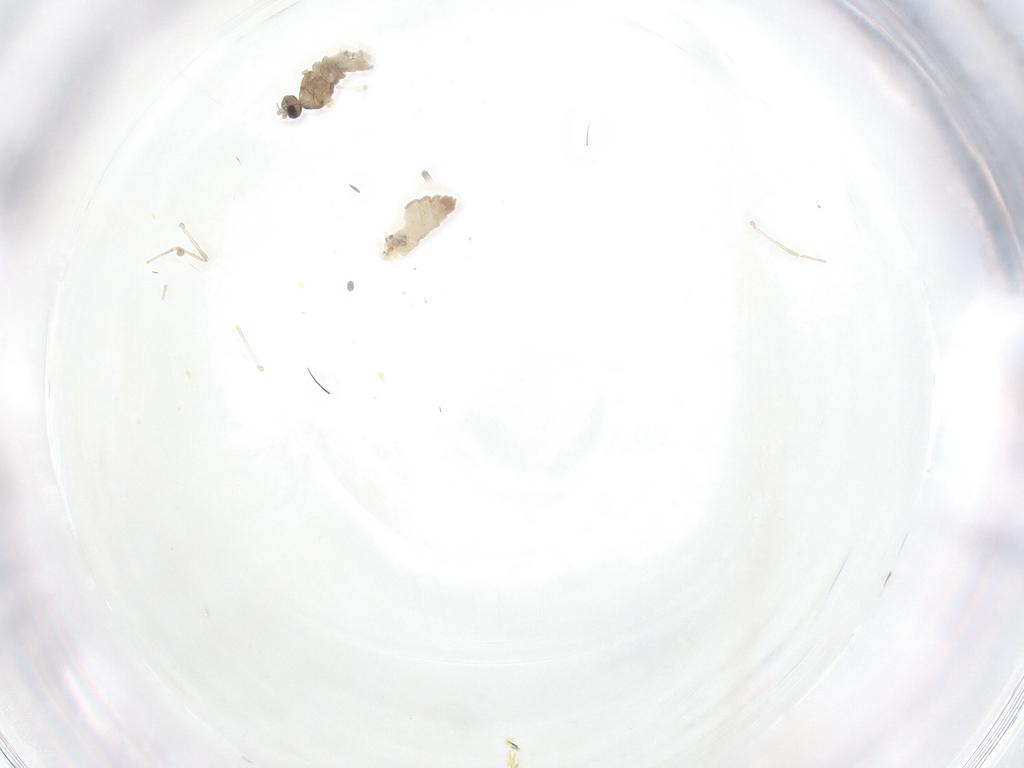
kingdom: Animalia
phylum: Arthropoda
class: Insecta
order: Diptera
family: Cecidomyiidae
